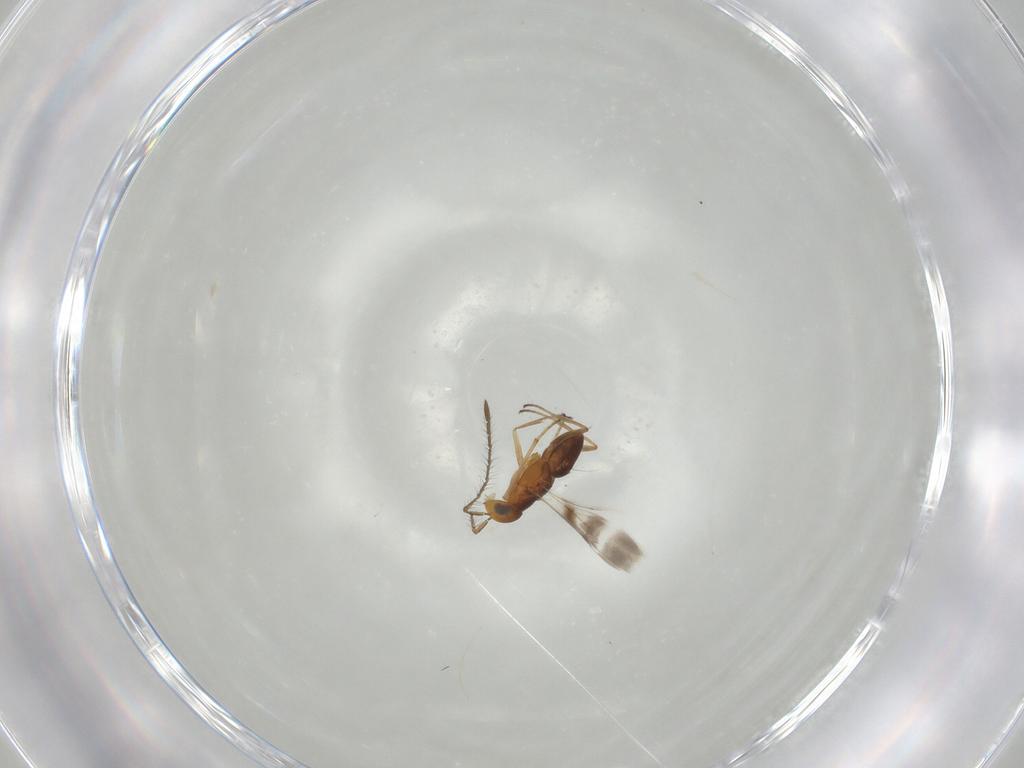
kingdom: Animalia
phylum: Arthropoda
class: Insecta
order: Hymenoptera
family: Encyrtidae
